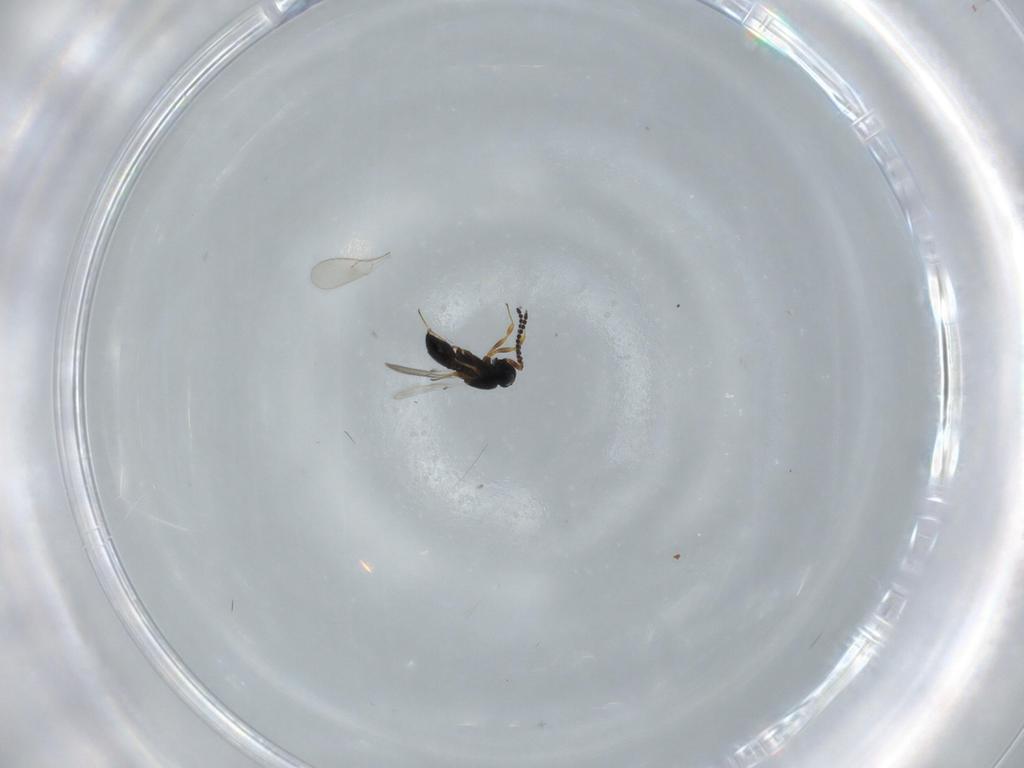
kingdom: Animalia
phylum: Arthropoda
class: Insecta
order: Hymenoptera
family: Scelionidae
